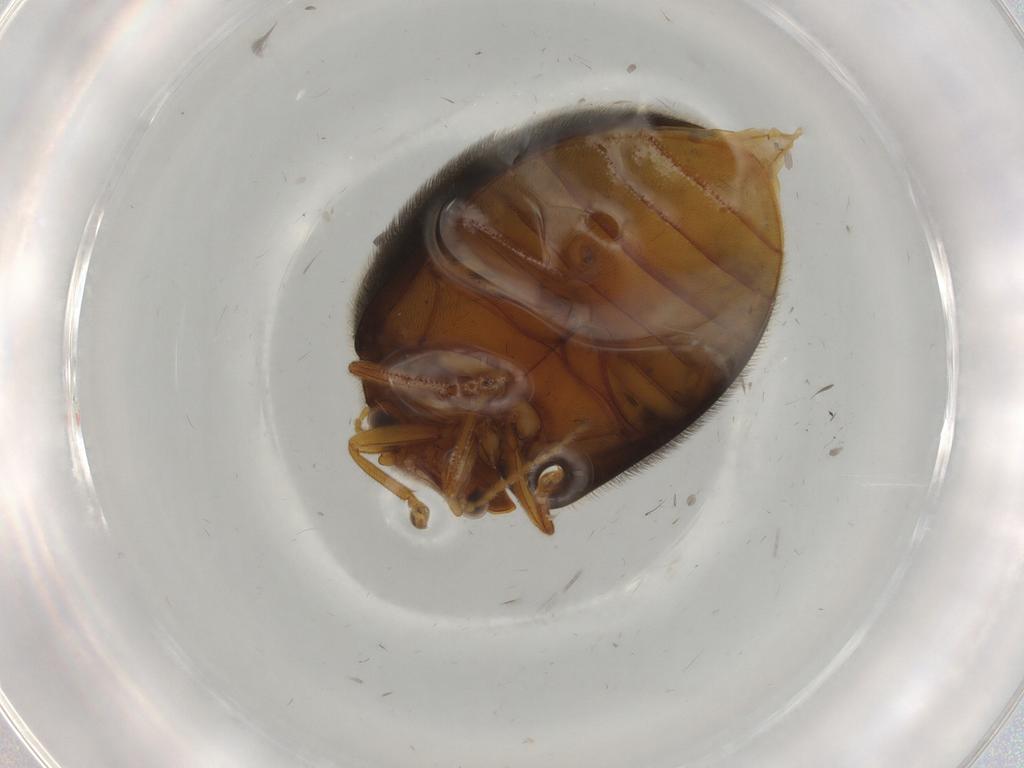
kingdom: Animalia
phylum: Arthropoda
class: Insecta
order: Coleoptera
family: Scirtidae
